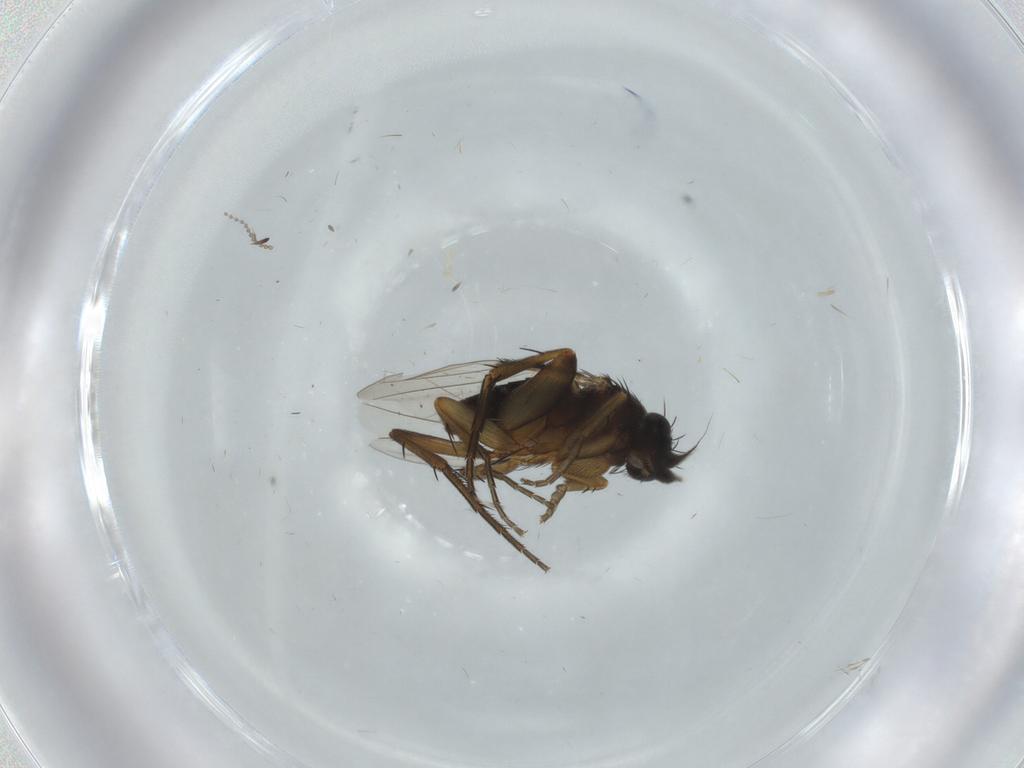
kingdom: Animalia
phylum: Arthropoda
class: Insecta
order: Diptera
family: Phoridae
